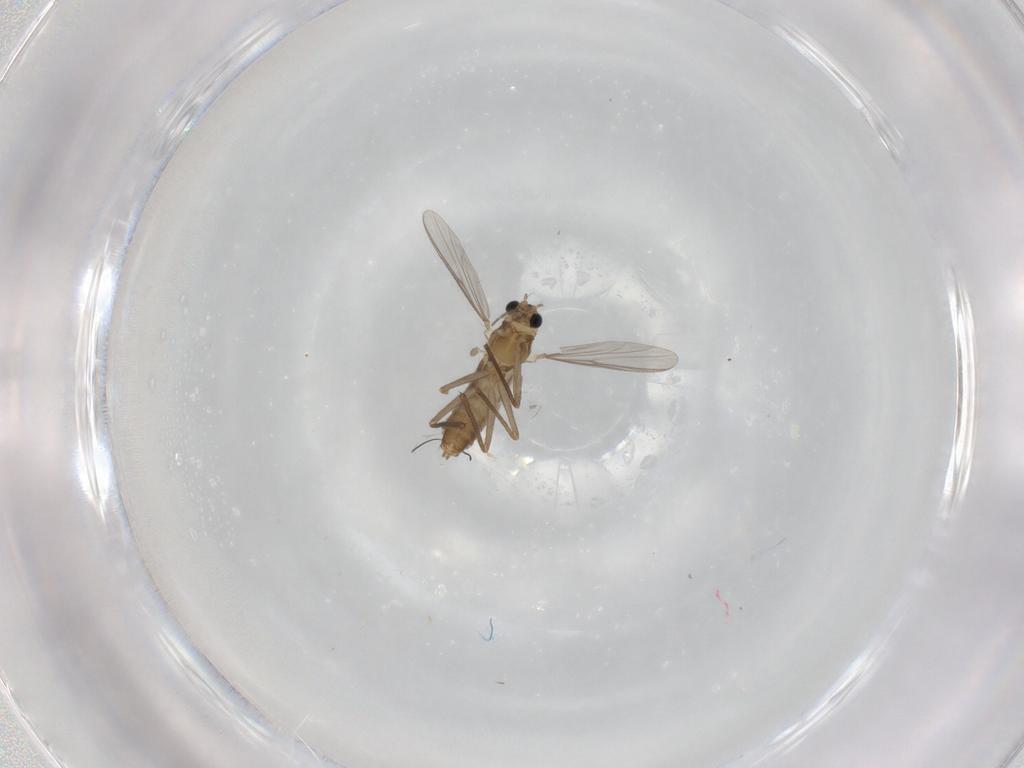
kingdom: Animalia
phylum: Arthropoda
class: Insecta
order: Diptera
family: Chironomidae
